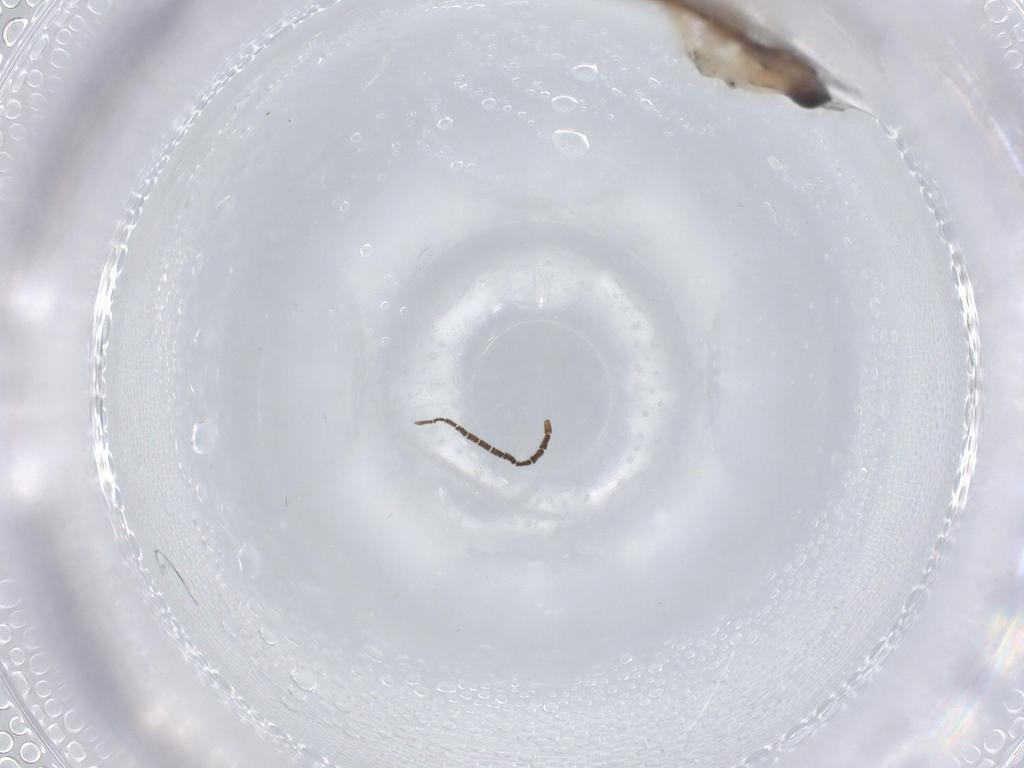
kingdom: Animalia
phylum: Arthropoda
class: Insecta
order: Diptera
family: Sciaridae
